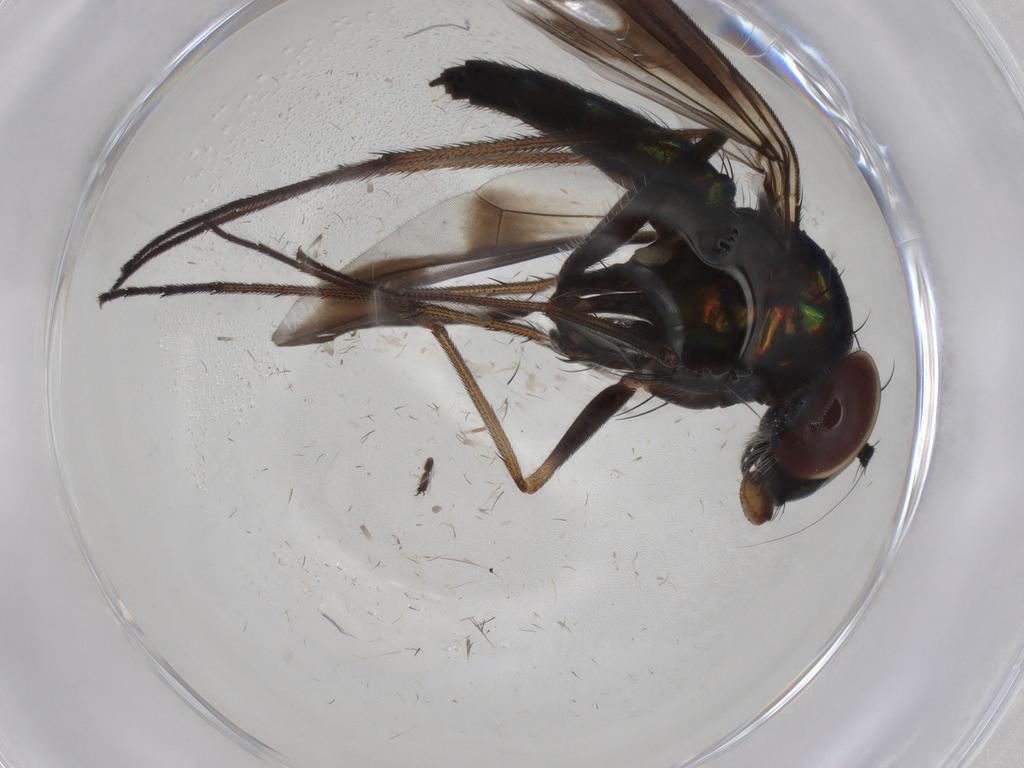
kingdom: Animalia
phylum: Arthropoda
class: Insecta
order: Diptera
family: Dolichopodidae
